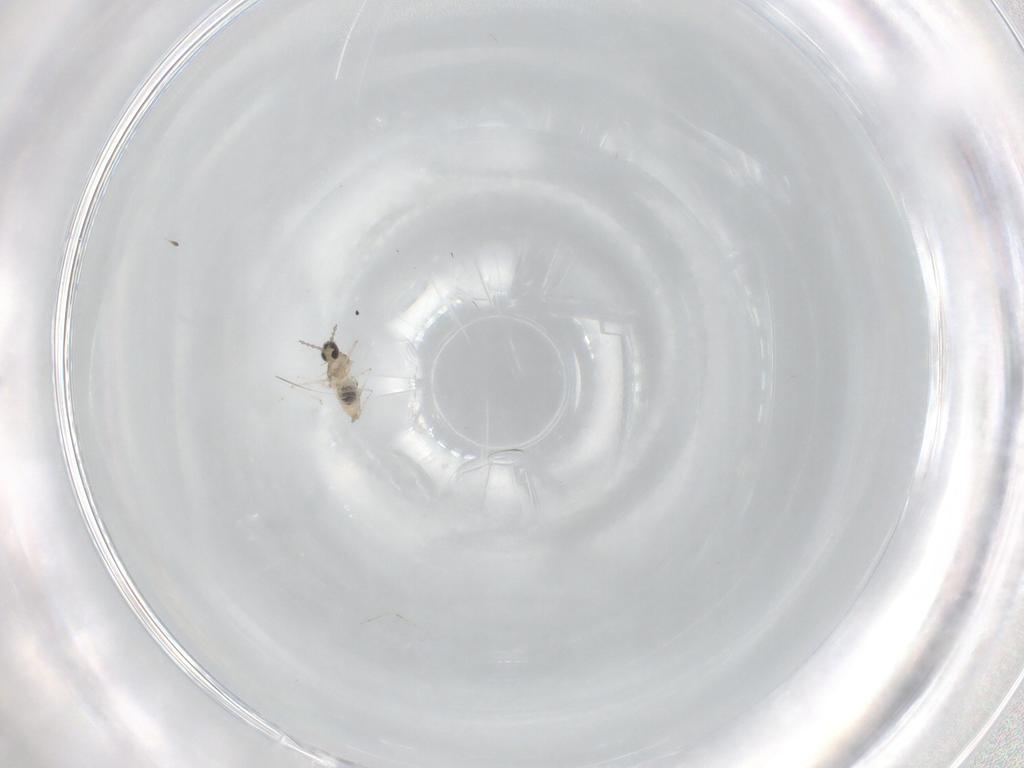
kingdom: Animalia
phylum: Arthropoda
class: Insecta
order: Diptera
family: Cecidomyiidae
